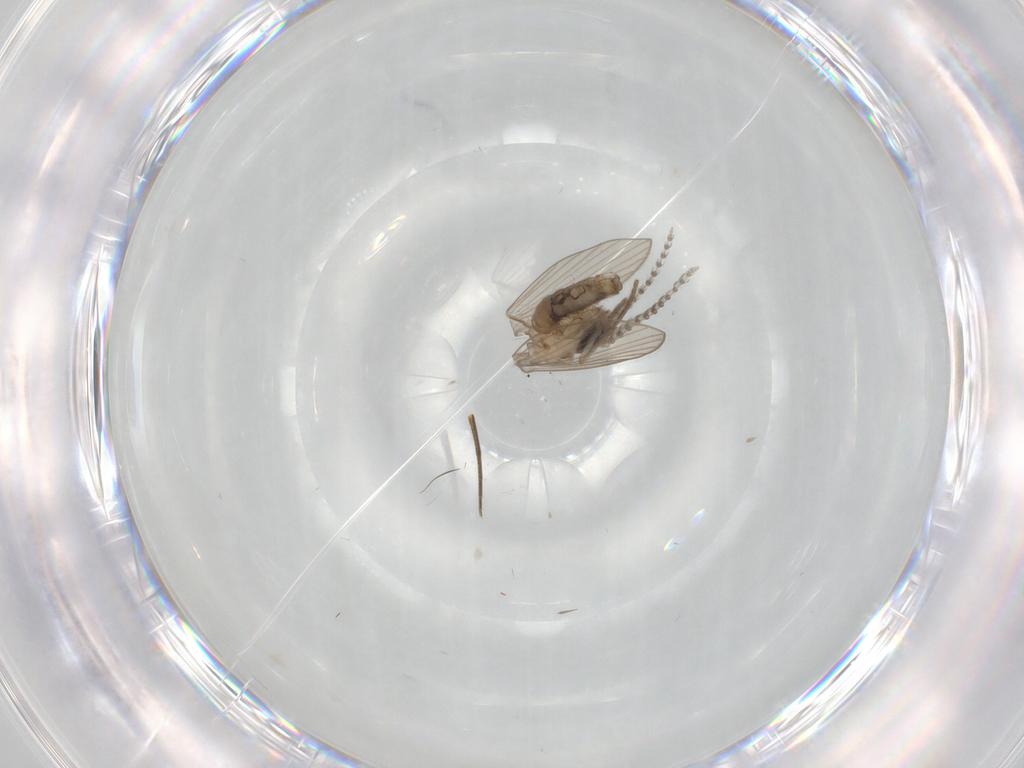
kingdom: Animalia
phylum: Arthropoda
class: Insecta
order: Diptera
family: Psychodidae
